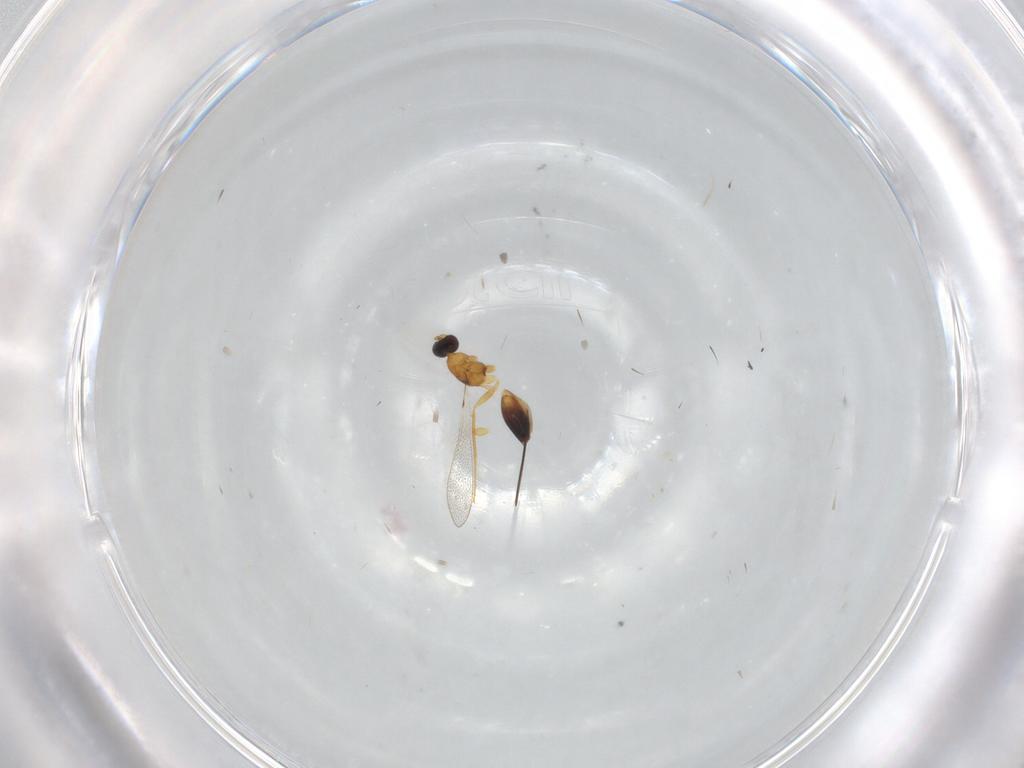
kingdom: Animalia
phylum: Arthropoda
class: Insecta
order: Hymenoptera
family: Mymaridae
